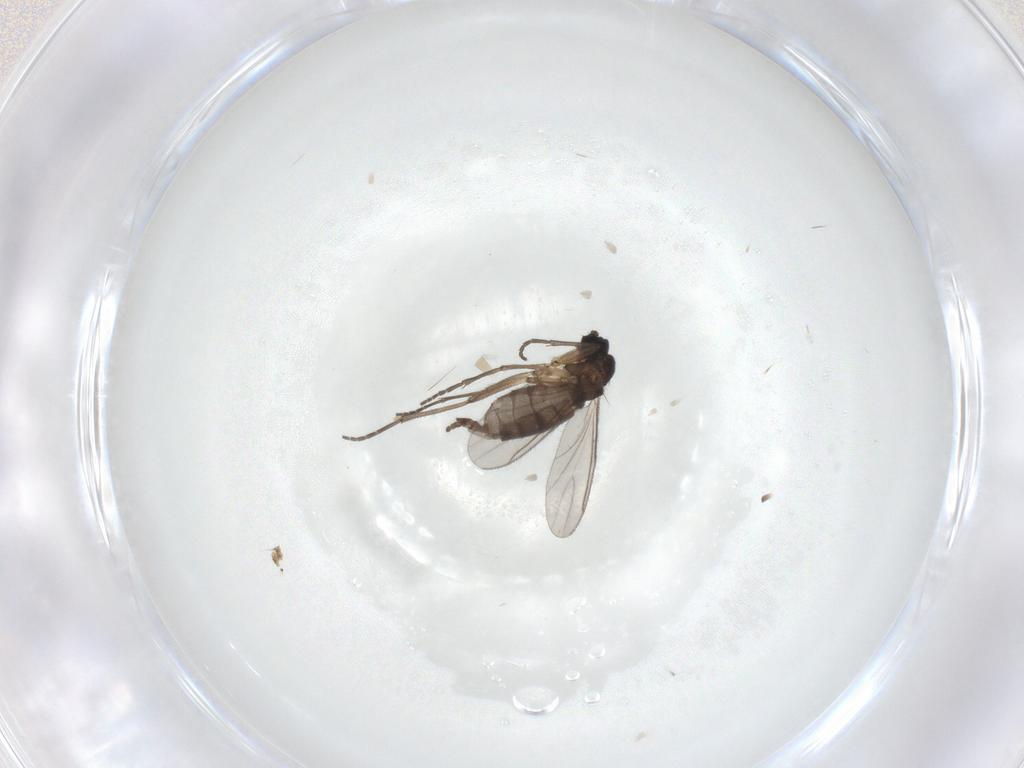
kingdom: Animalia
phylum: Arthropoda
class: Insecta
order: Diptera
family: Sciaridae
